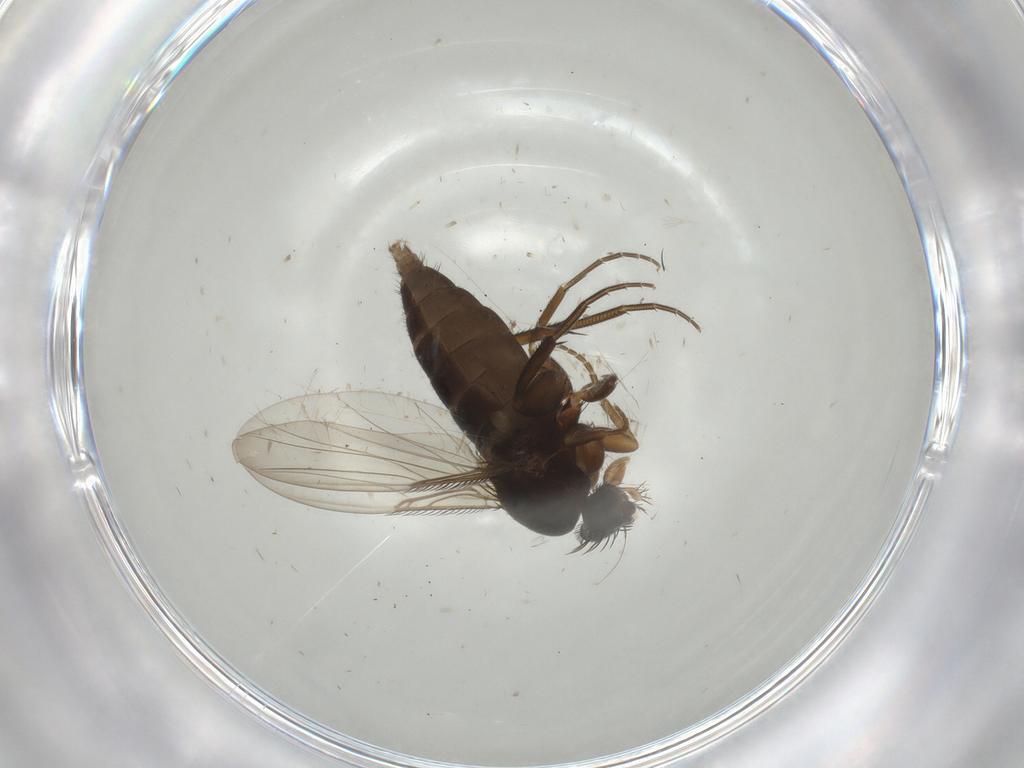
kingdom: Animalia
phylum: Arthropoda
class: Insecta
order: Diptera
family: Phoridae
